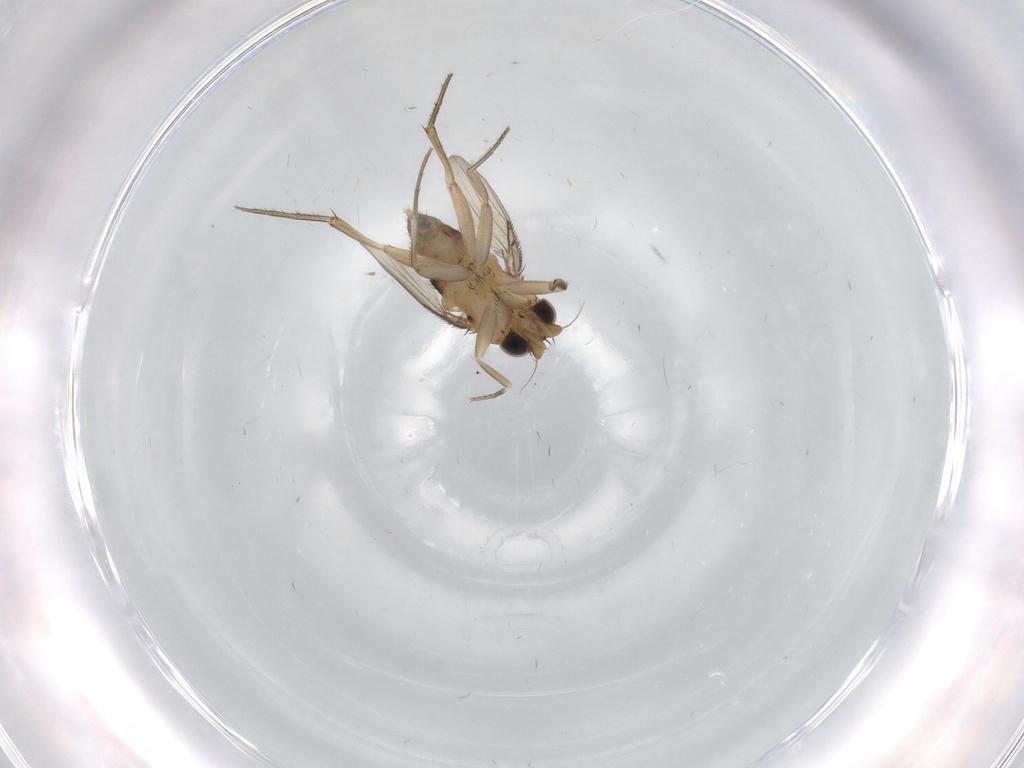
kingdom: Animalia
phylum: Arthropoda
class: Insecta
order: Diptera
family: Phoridae
